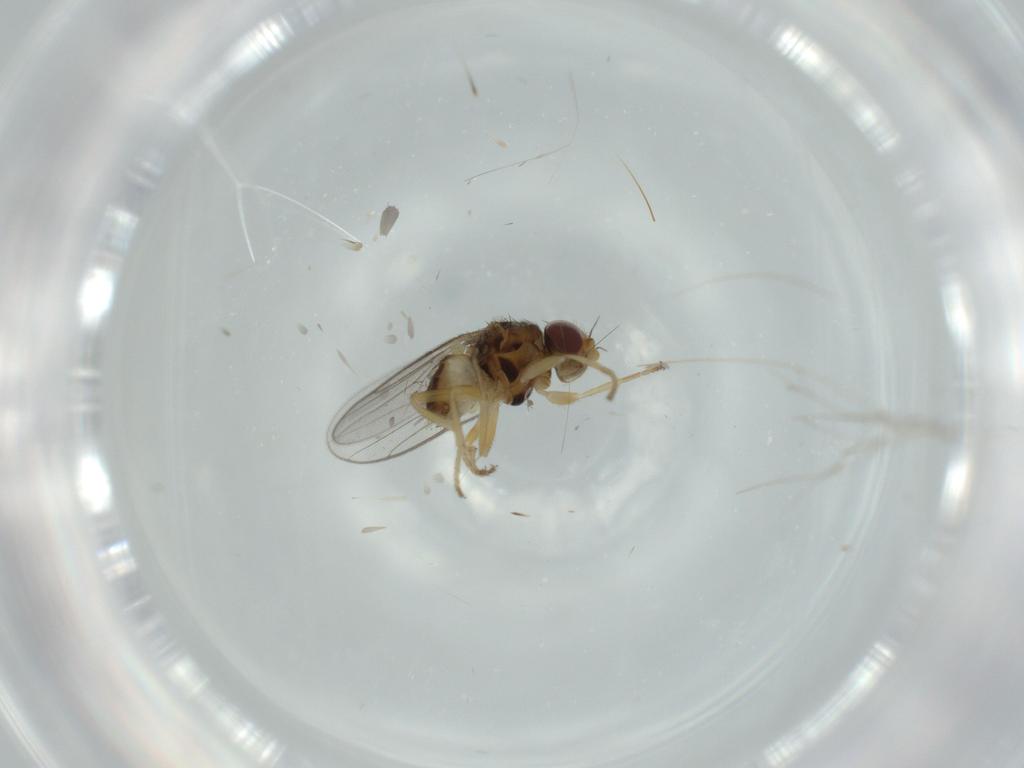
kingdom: Animalia
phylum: Arthropoda
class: Insecta
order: Diptera
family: Chloropidae
